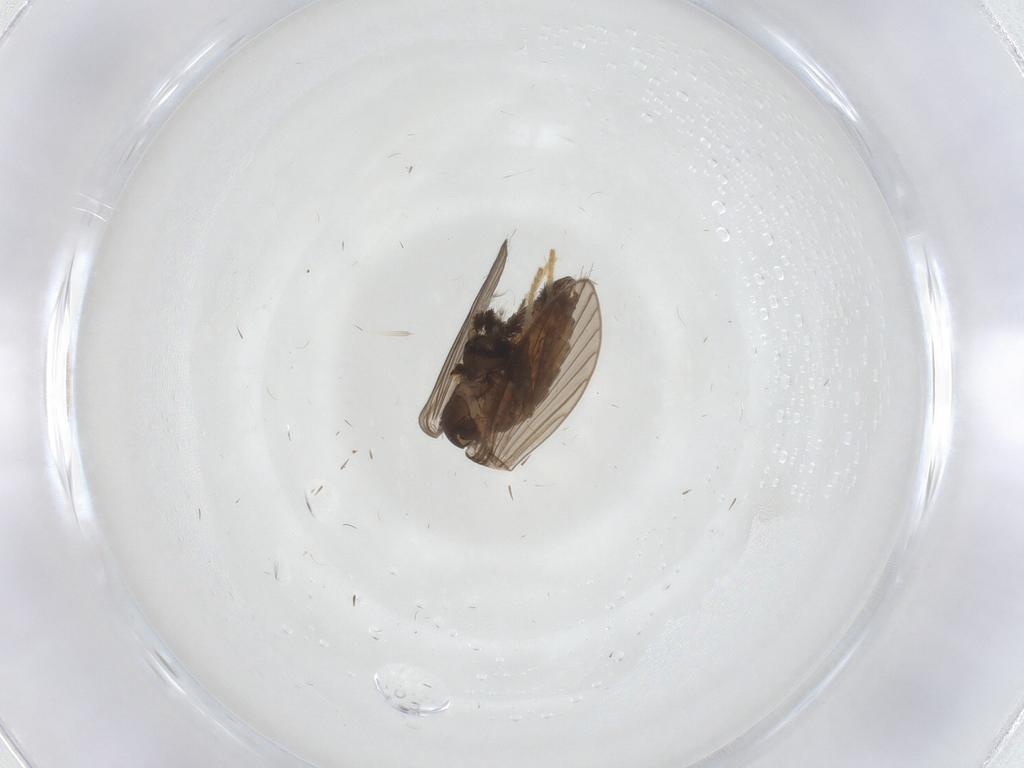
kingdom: Animalia
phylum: Arthropoda
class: Insecta
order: Diptera
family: Psychodidae
